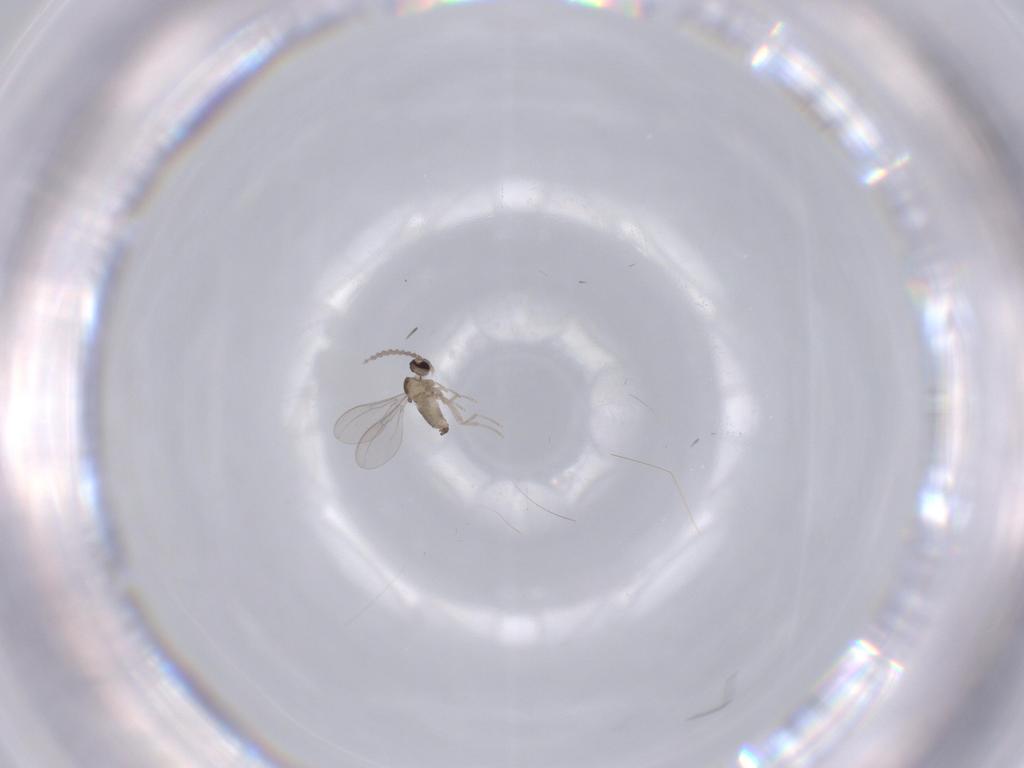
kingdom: Animalia
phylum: Arthropoda
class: Insecta
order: Diptera
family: Ceratopogonidae
